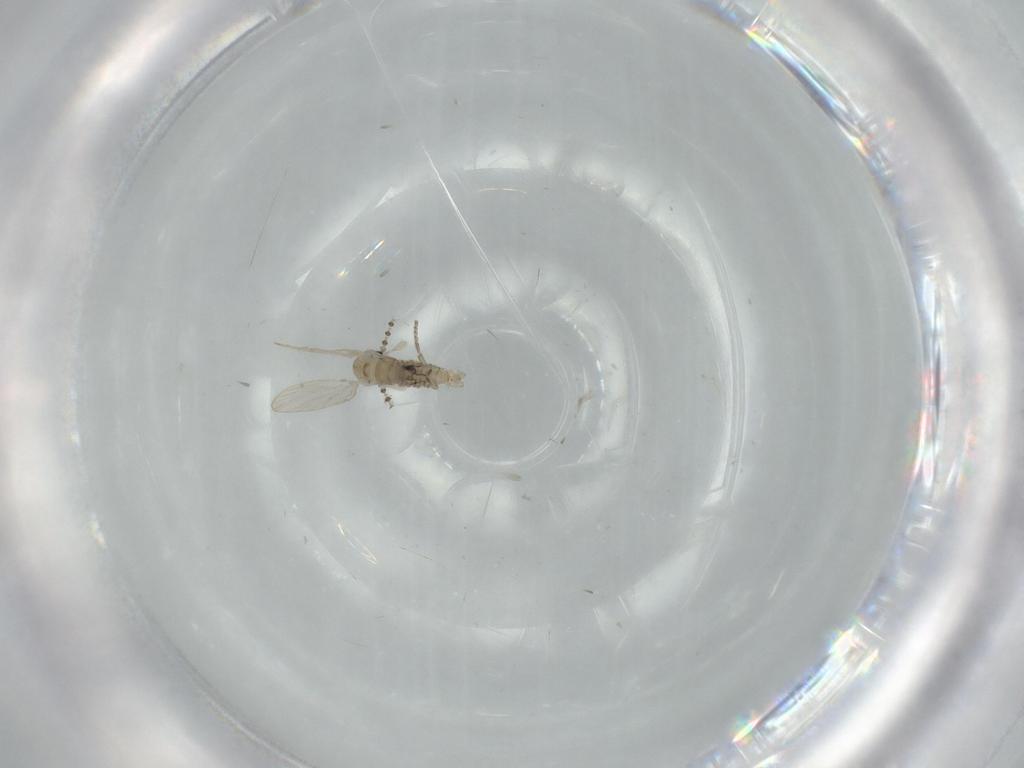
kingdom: Animalia
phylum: Arthropoda
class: Insecta
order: Diptera
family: Psychodidae
